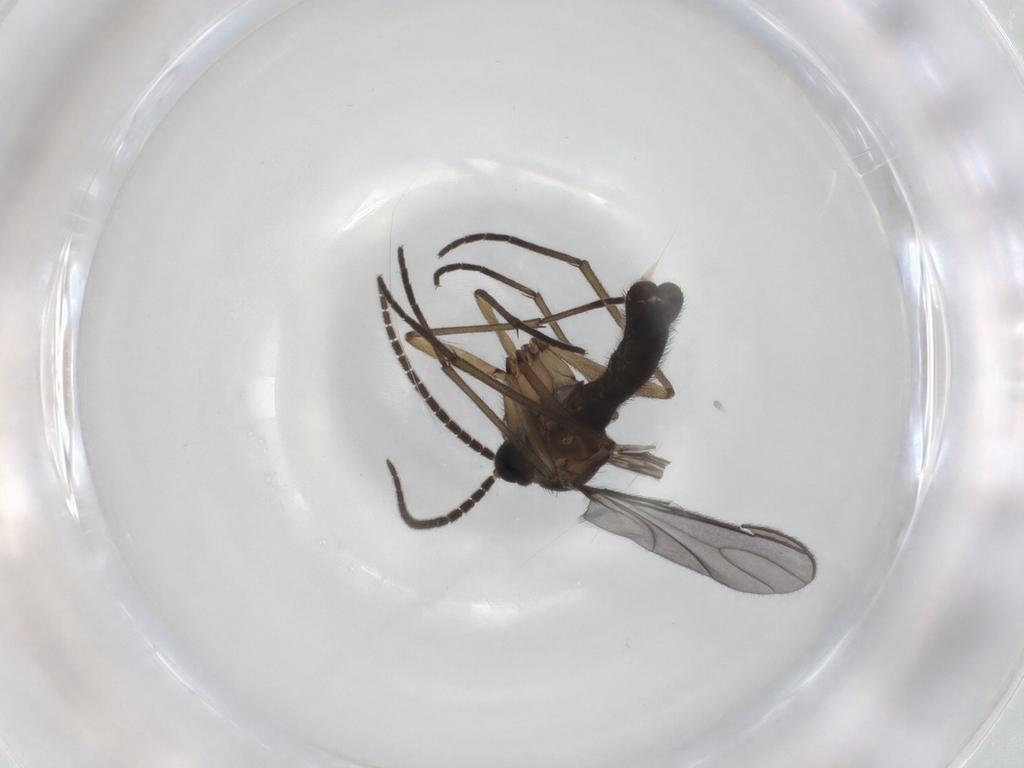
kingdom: Animalia
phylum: Arthropoda
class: Insecta
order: Diptera
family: Sciaridae
